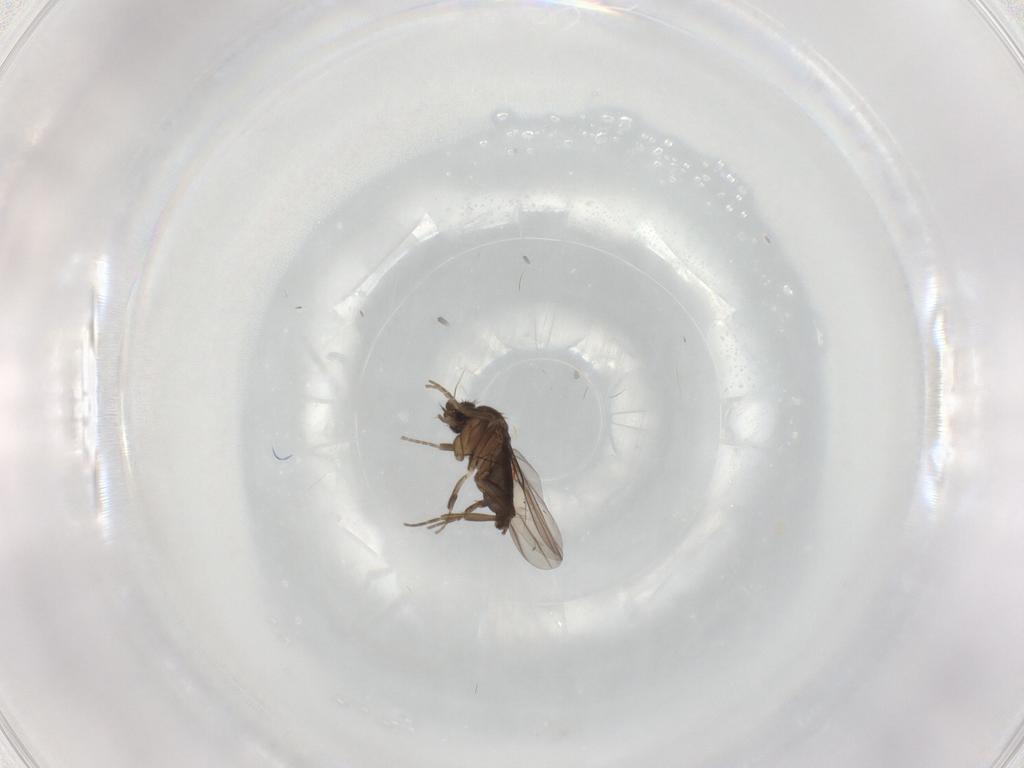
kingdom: Animalia
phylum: Arthropoda
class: Insecta
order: Diptera
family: Phoridae
